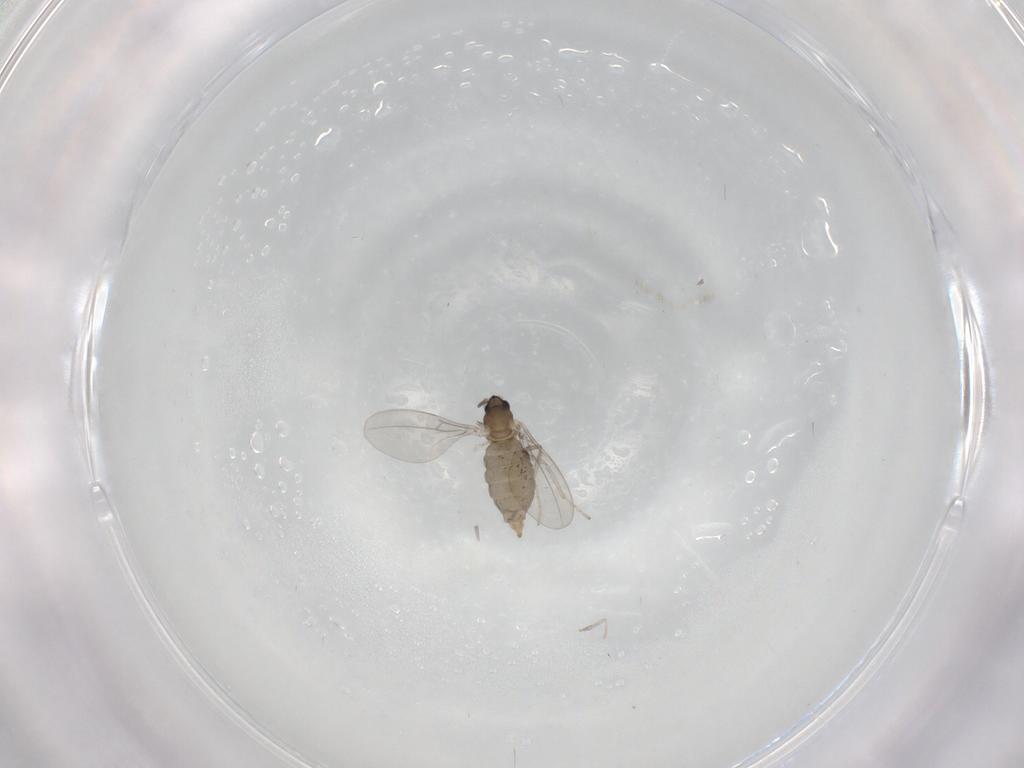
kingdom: Animalia
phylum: Arthropoda
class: Insecta
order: Diptera
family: Cecidomyiidae
